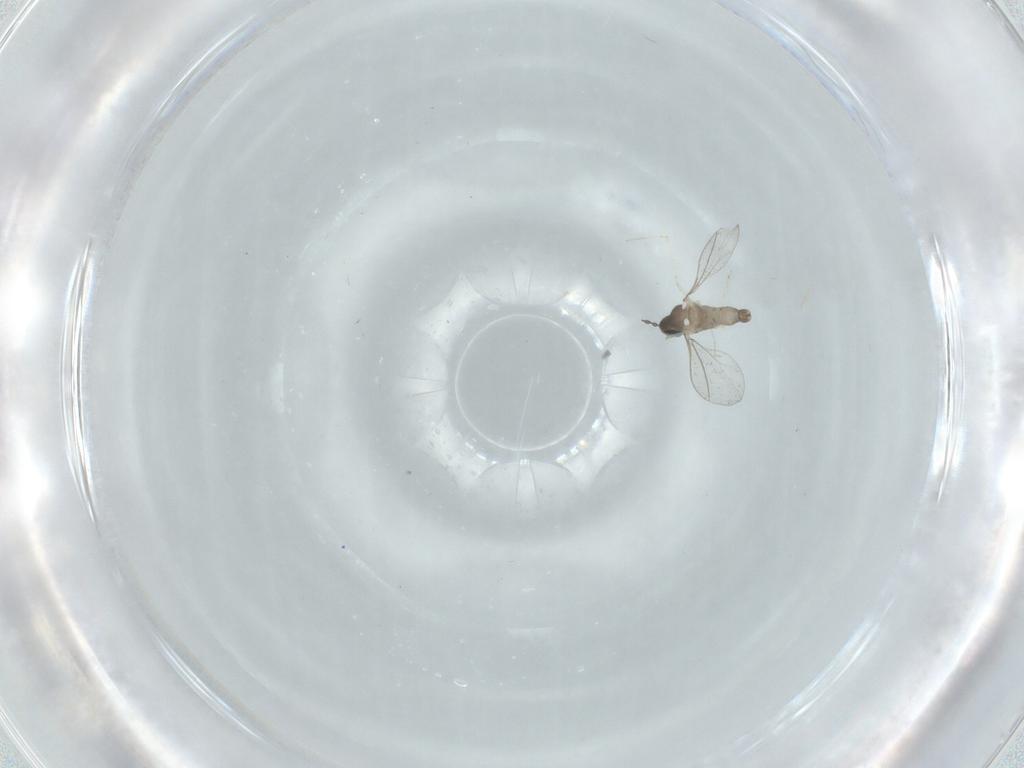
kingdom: Animalia
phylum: Arthropoda
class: Insecta
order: Diptera
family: Cecidomyiidae
